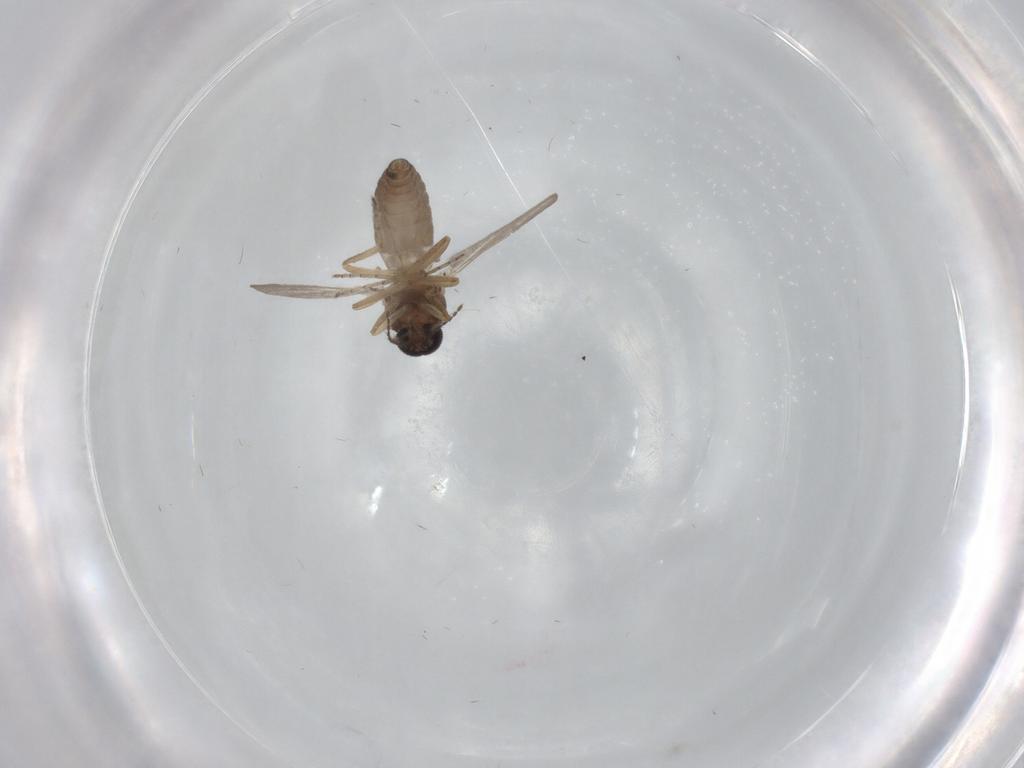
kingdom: Animalia
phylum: Arthropoda
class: Insecta
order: Diptera
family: Ceratopogonidae
